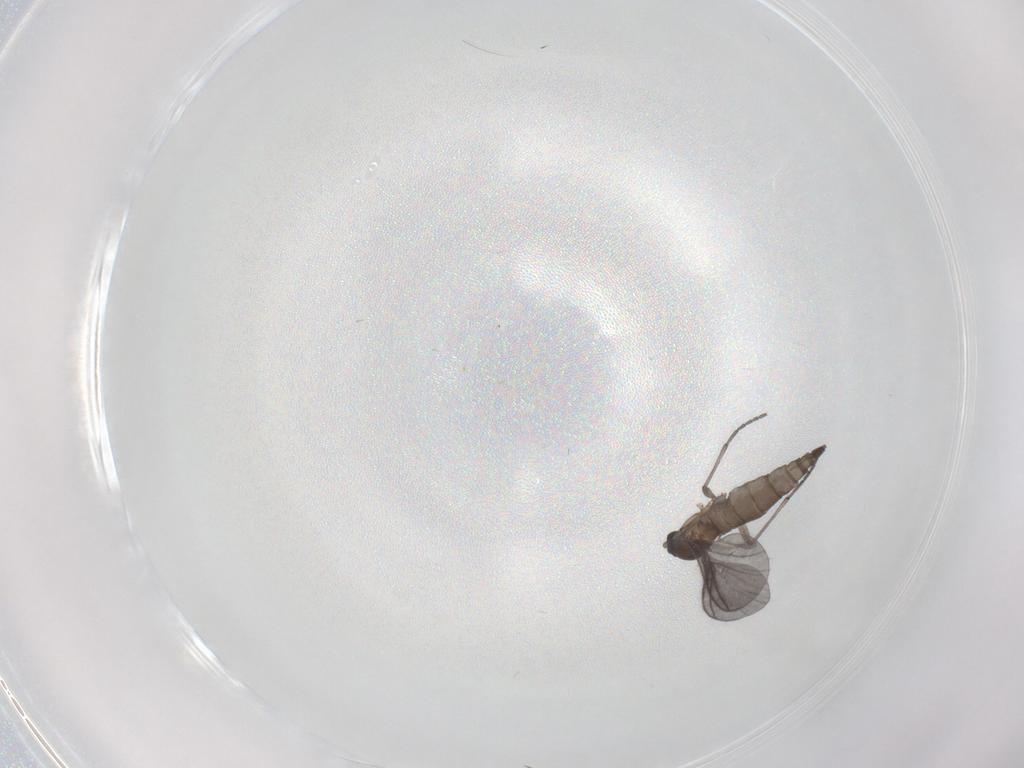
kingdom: Animalia
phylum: Arthropoda
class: Insecta
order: Diptera
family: Sciaridae
